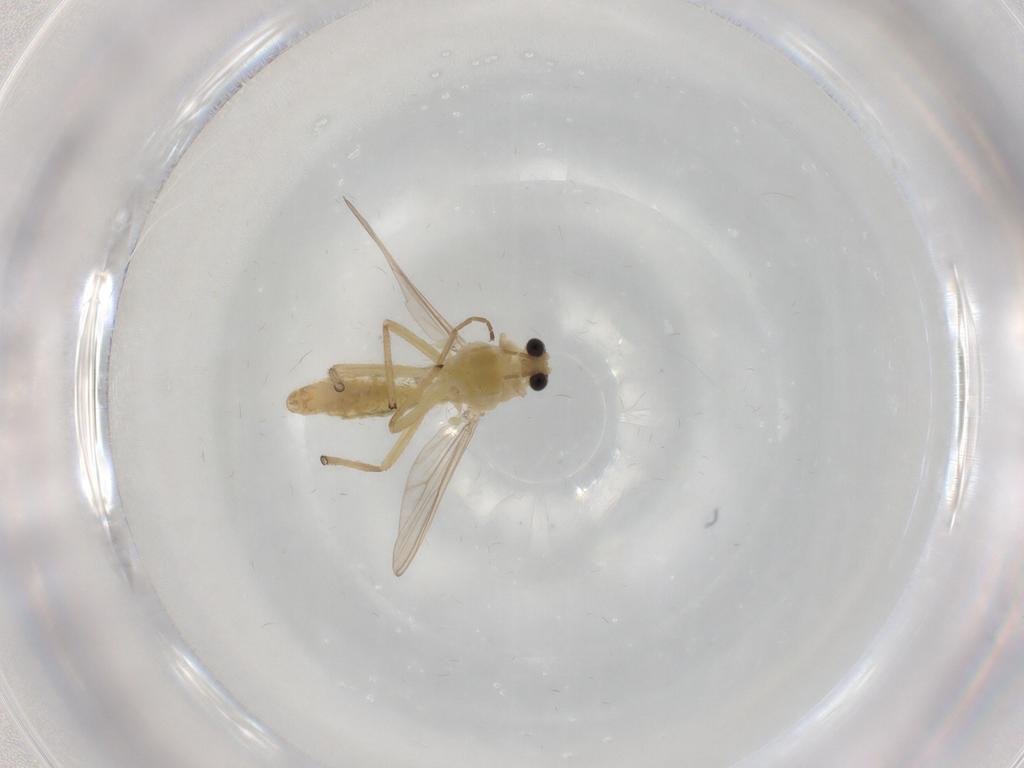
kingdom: Animalia
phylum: Arthropoda
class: Insecta
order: Diptera
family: Chironomidae
